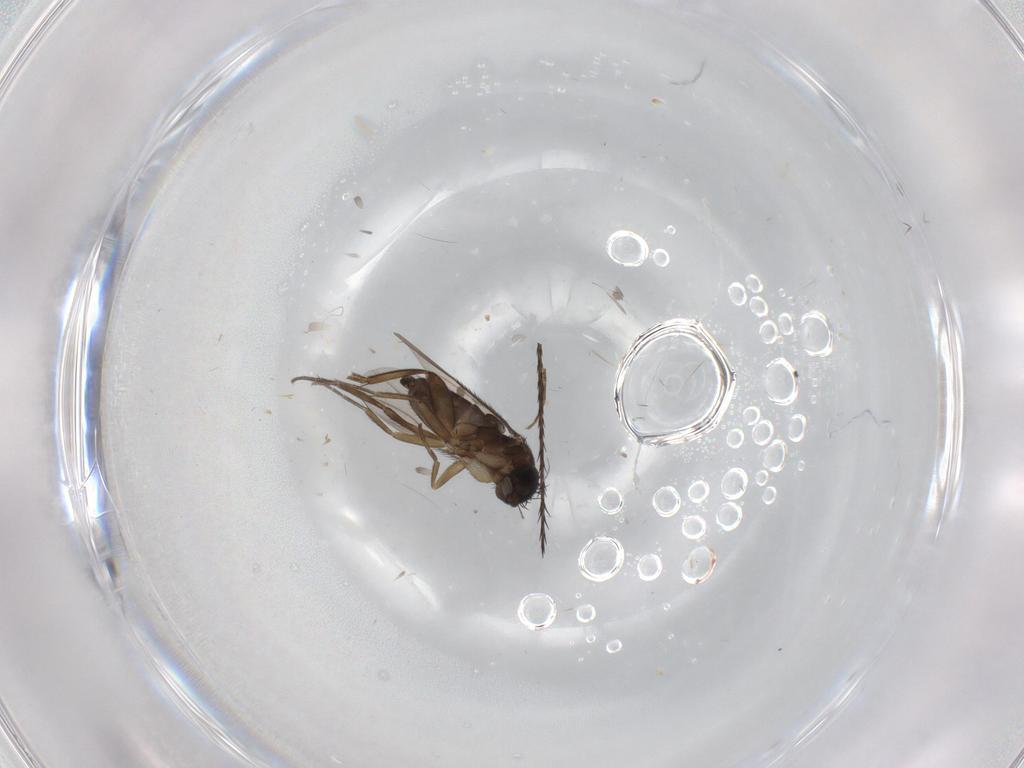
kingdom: Animalia
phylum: Arthropoda
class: Insecta
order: Diptera
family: Phoridae
